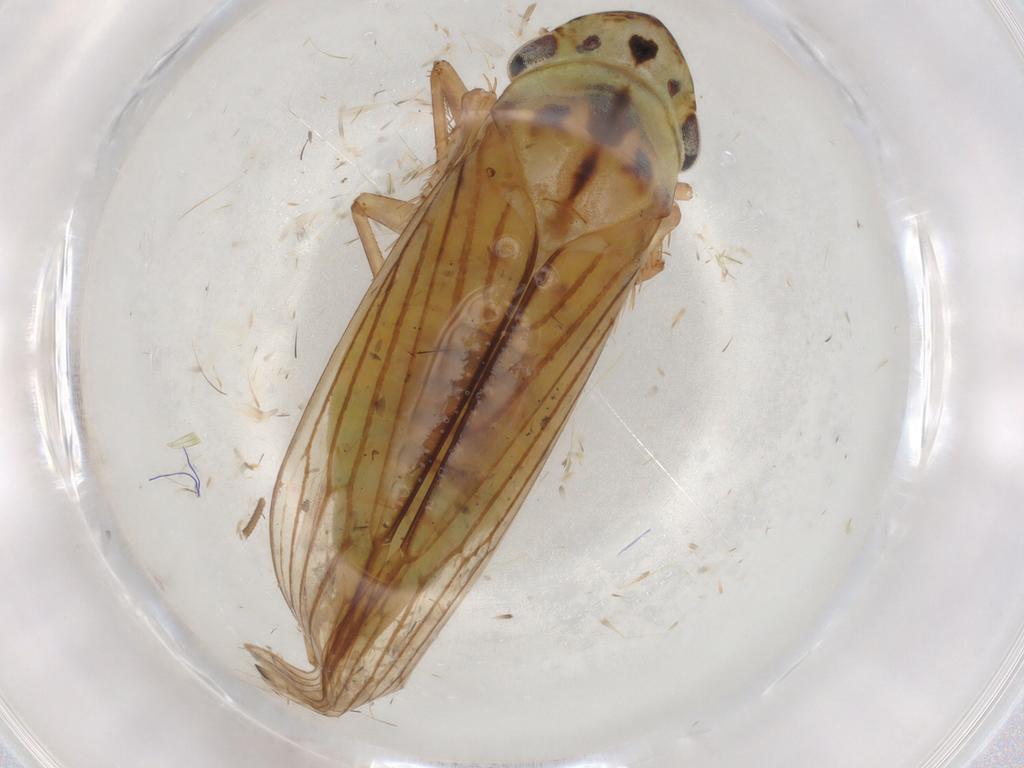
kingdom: Animalia
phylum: Arthropoda
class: Insecta
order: Hemiptera
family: Cicadellidae
